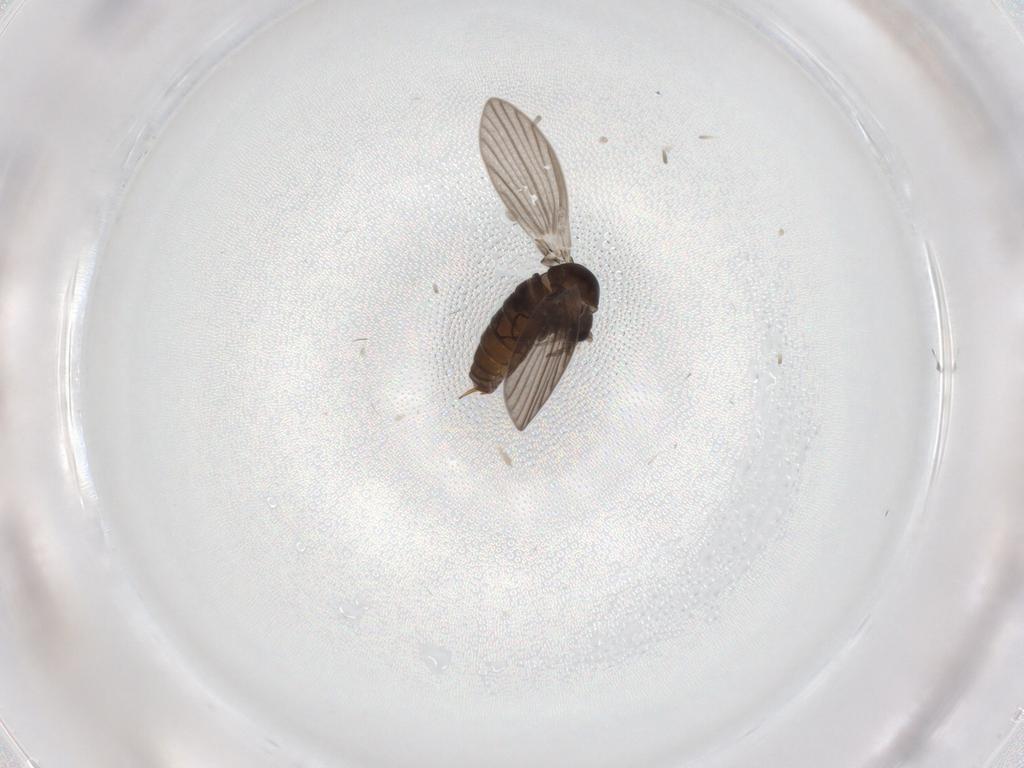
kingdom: Animalia
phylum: Arthropoda
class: Insecta
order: Diptera
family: Psychodidae
